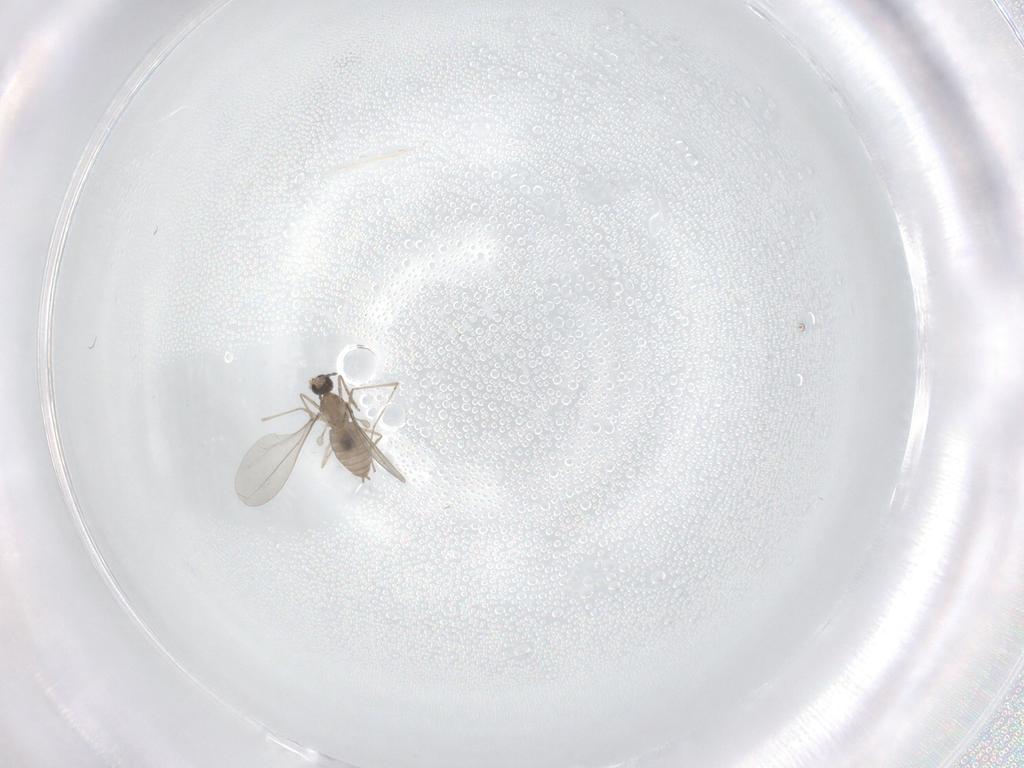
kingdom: Animalia
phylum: Arthropoda
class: Insecta
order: Diptera
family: Cecidomyiidae
